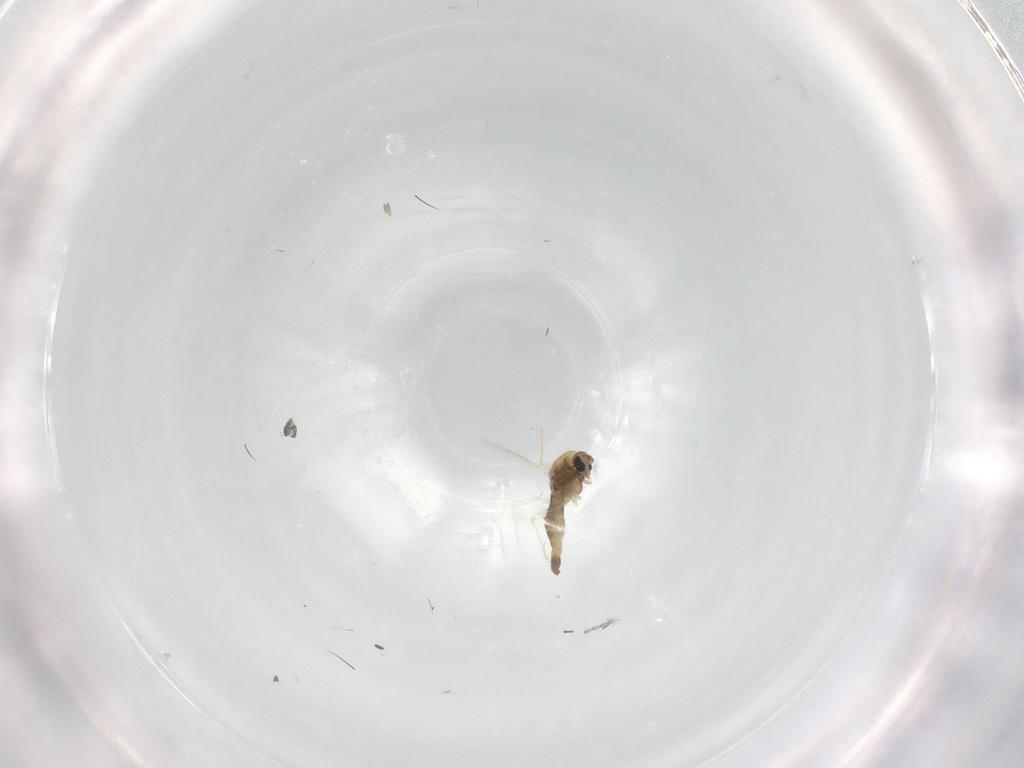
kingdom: Animalia
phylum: Arthropoda
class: Insecta
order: Diptera
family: Chironomidae
